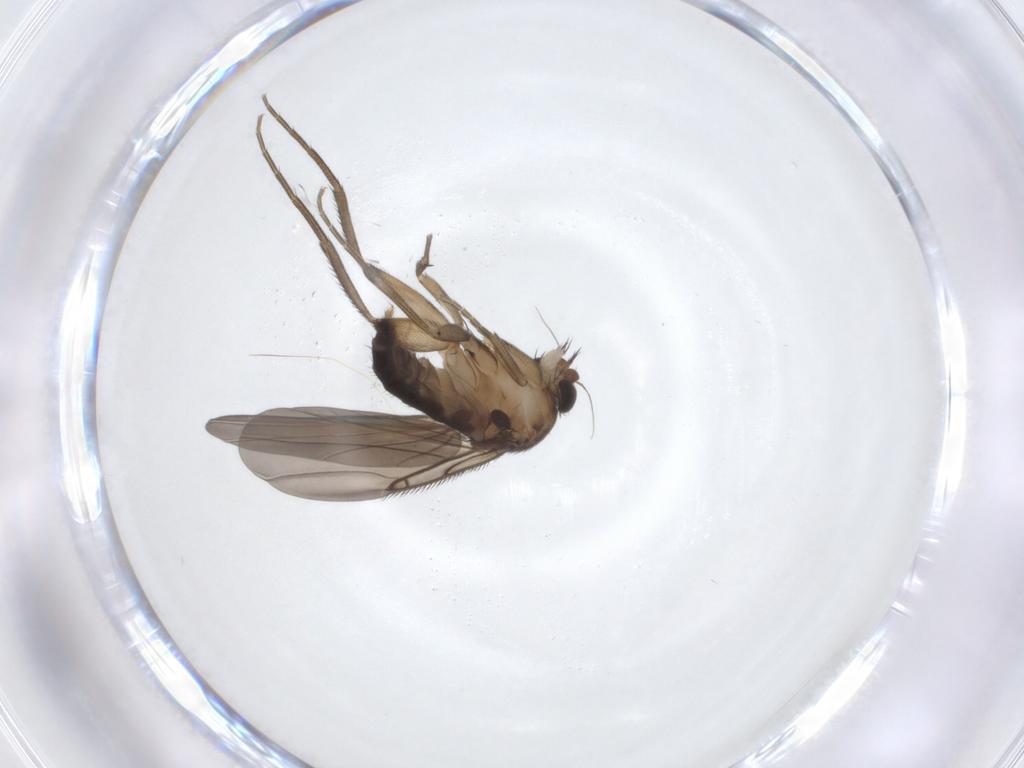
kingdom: Animalia
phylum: Arthropoda
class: Insecta
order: Diptera
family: Phoridae
